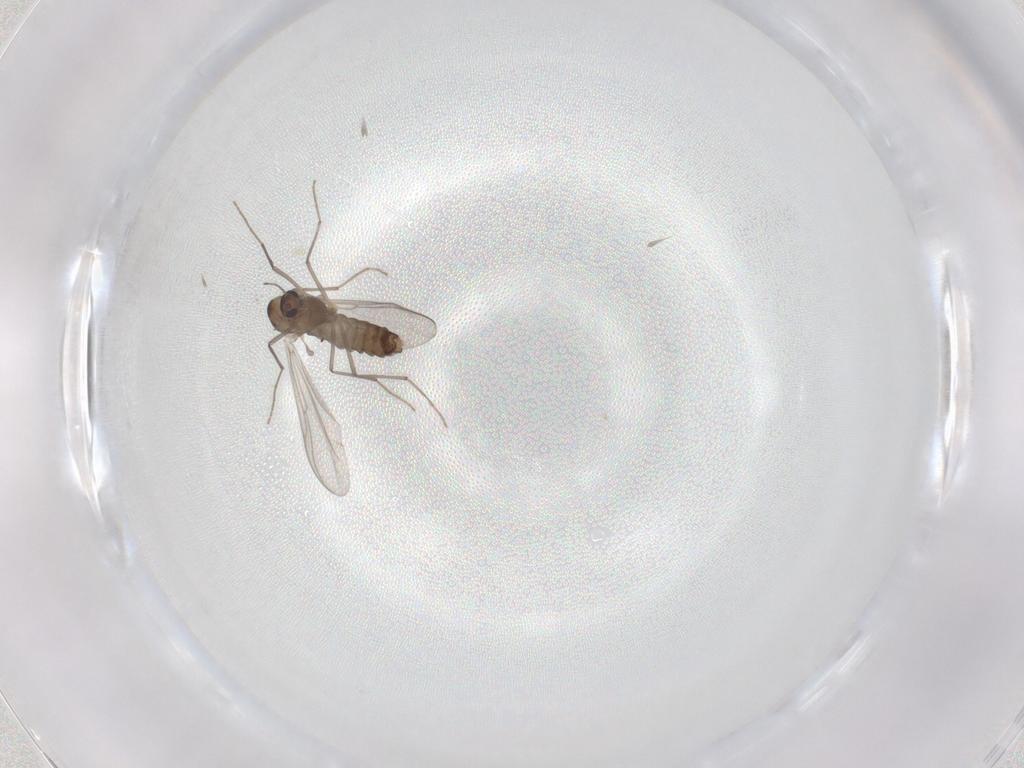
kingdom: Animalia
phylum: Arthropoda
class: Insecta
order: Diptera
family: Chironomidae
